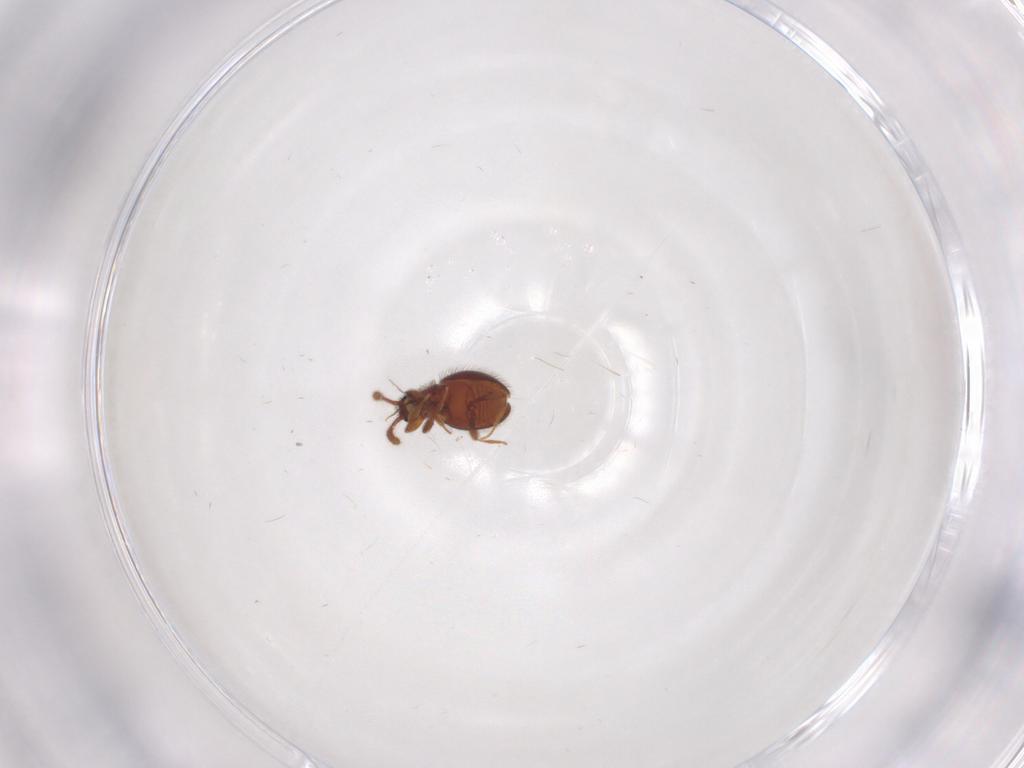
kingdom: Animalia
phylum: Arthropoda
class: Insecta
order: Coleoptera
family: Staphylinidae
